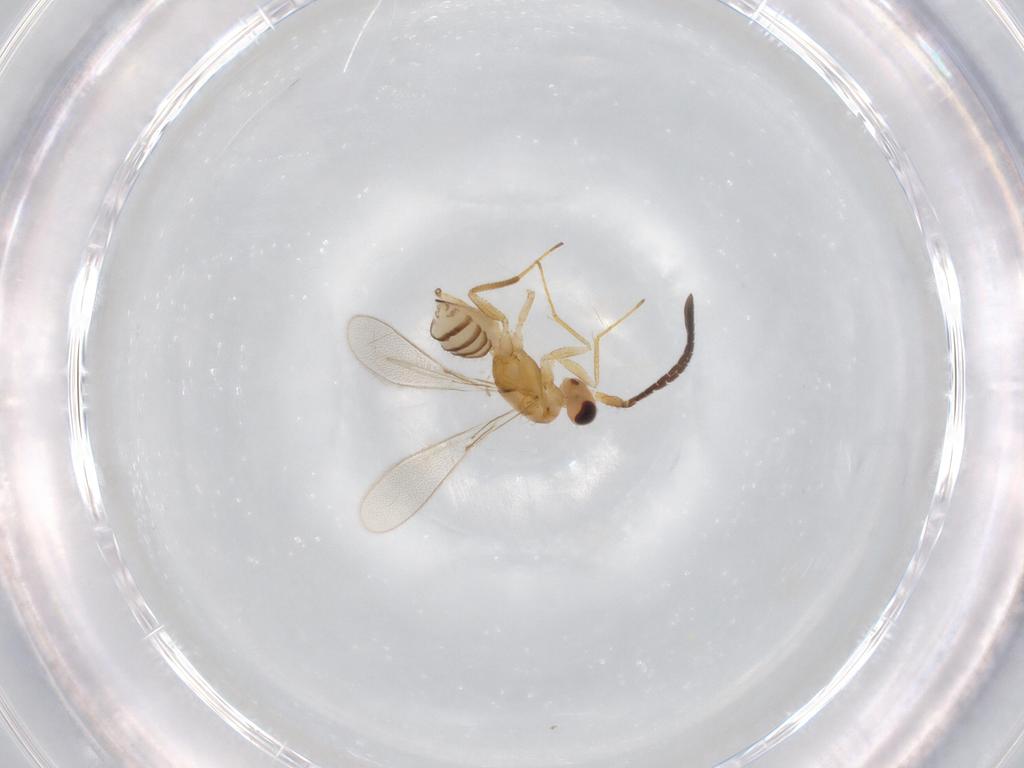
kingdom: Animalia
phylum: Arthropoda
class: Insecta
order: Hymenoptera
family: Mymaridae
